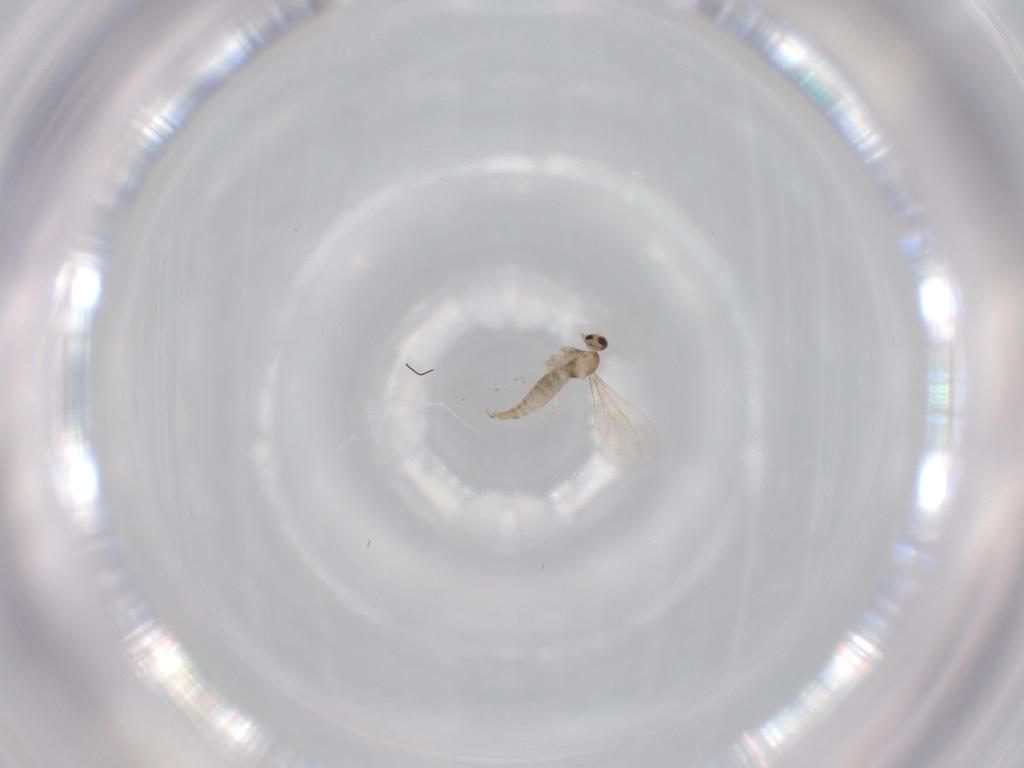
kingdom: Animalia
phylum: Arthropoda
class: Insecta
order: Diptera
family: Cecidomyiidae
